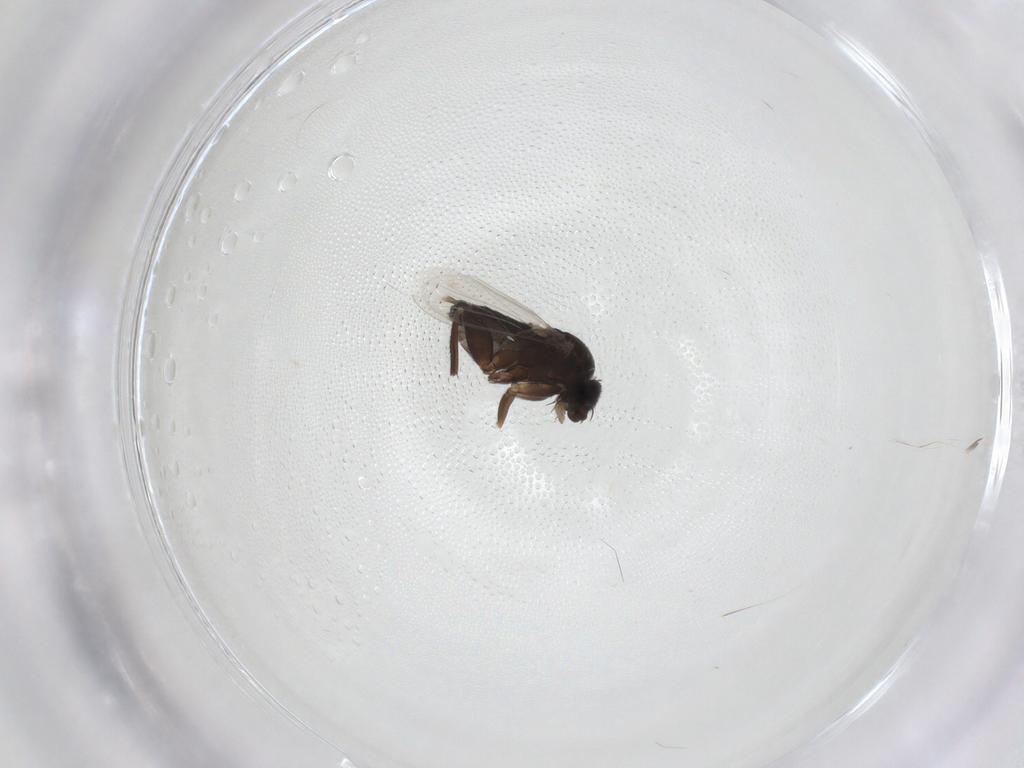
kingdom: Animalia
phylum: Arthropoda
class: Insecta
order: Diptera
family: Phoridae
